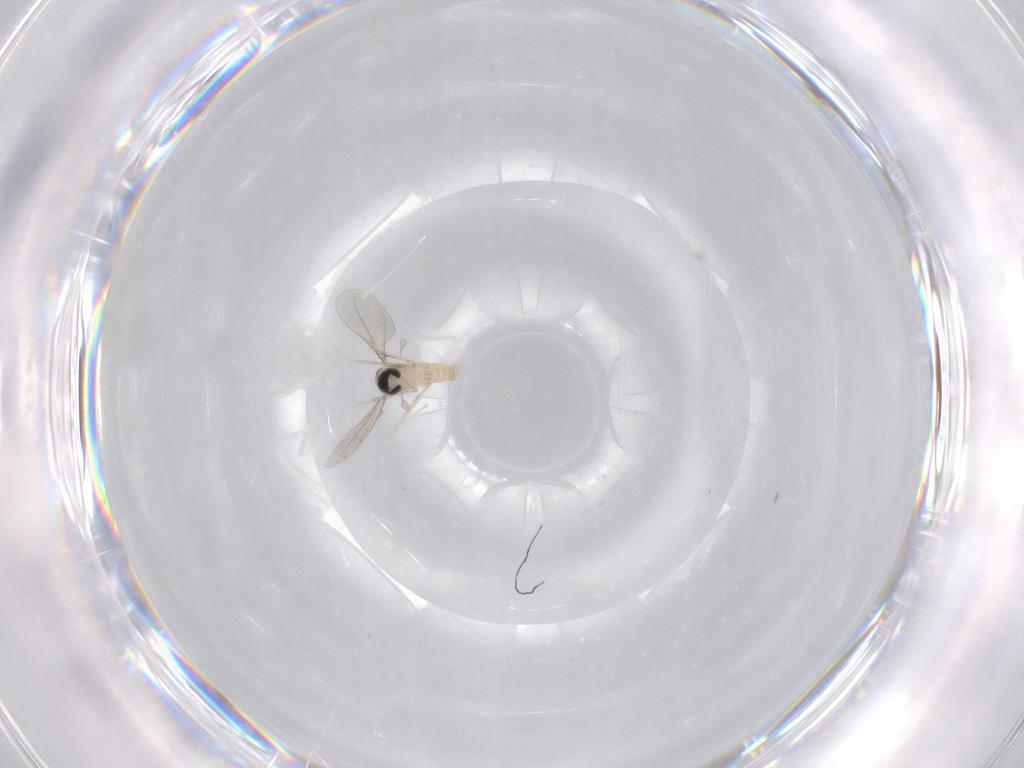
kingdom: Animalia
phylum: Arthropoda
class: Insecta
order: Diptera
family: Cecidomyiidae
